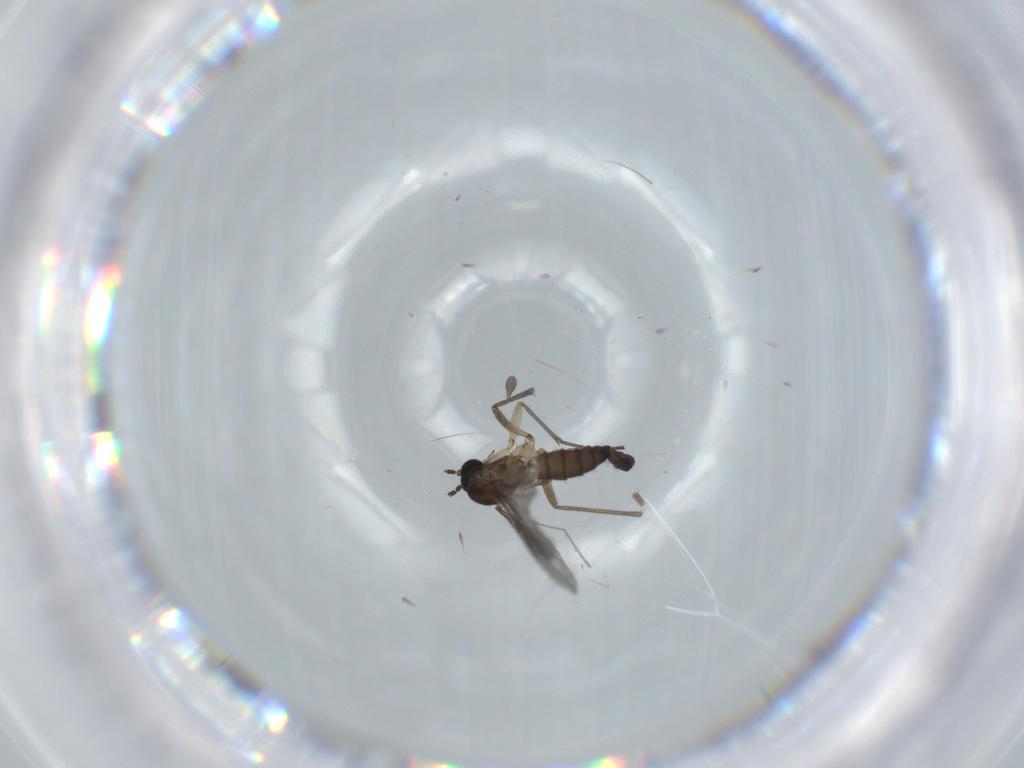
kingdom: Animalia
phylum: Arthropoda
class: Insecta
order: Diptera
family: Sciaridae
